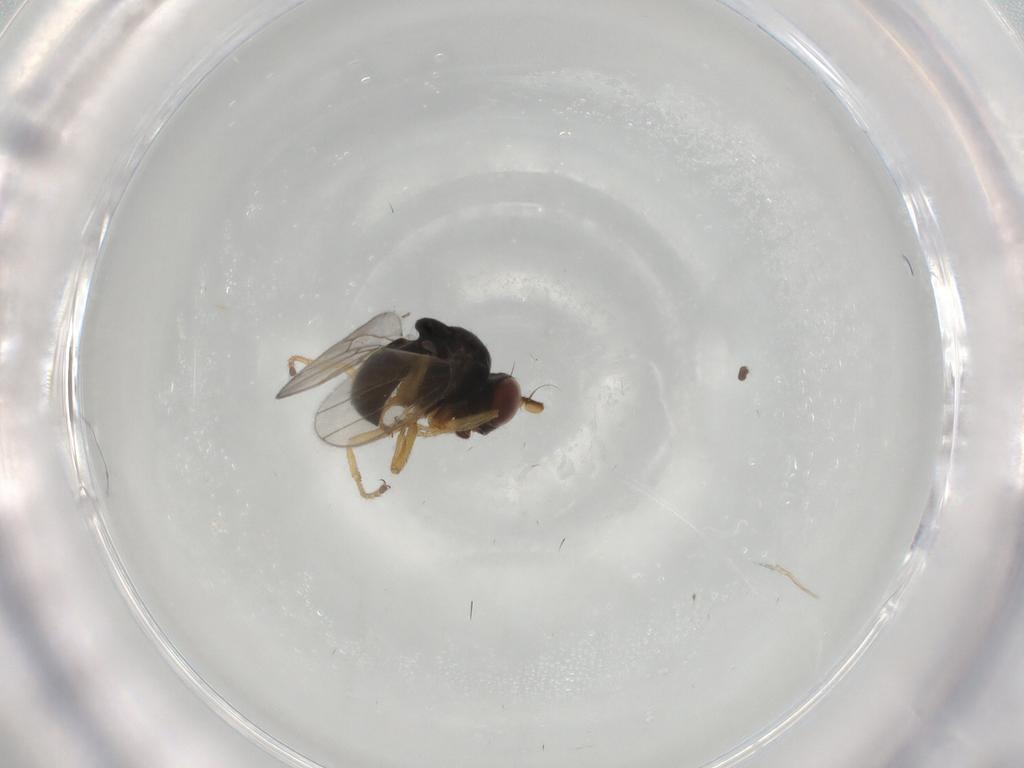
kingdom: Animalia
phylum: Arthropoda
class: Insecta
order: Diptera
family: Ephydridae
